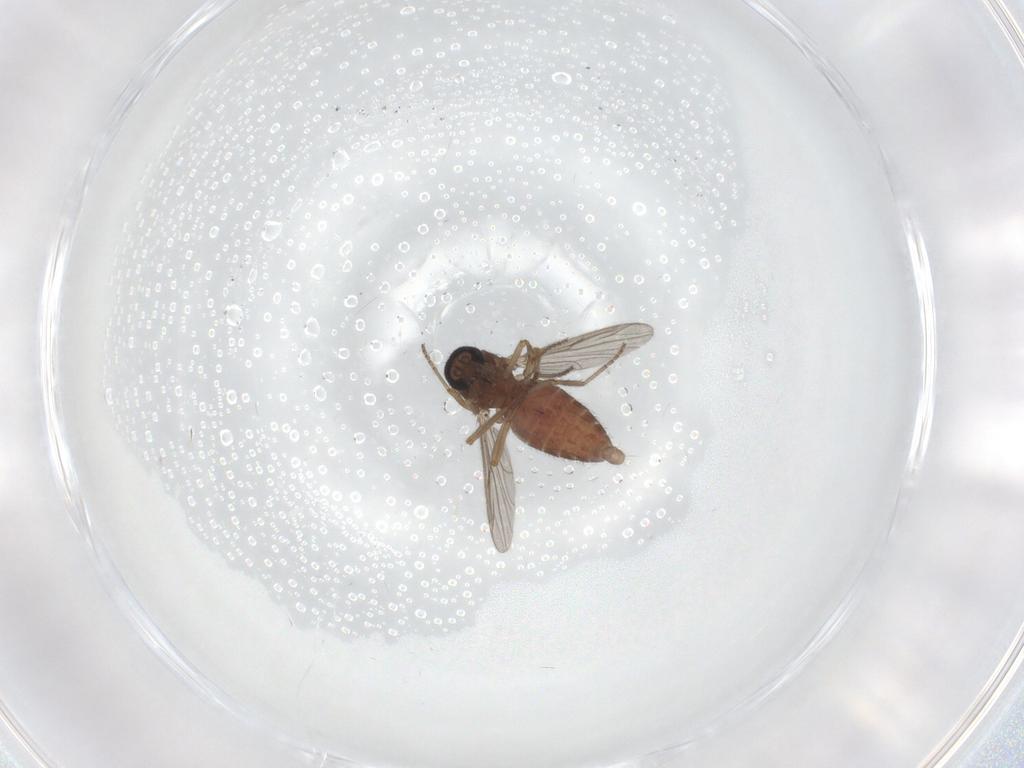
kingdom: Animalia
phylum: Arthropoda
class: Insecta
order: Diptera
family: Ceratopogonidae
